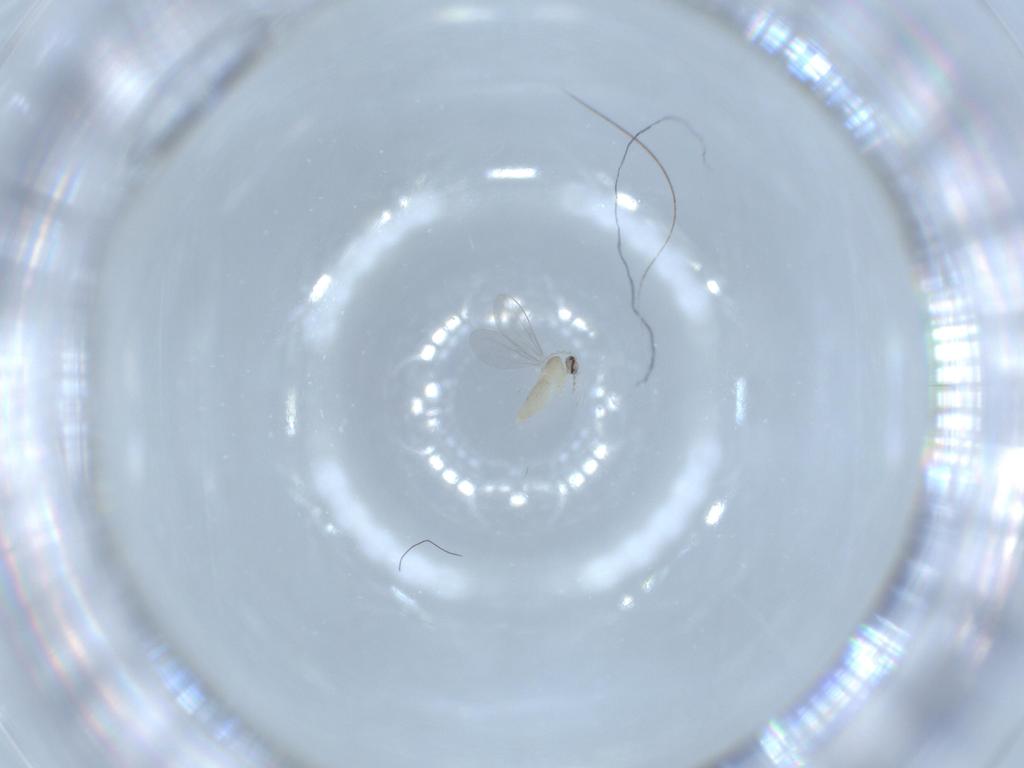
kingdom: Animalia
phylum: Arthropoda
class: Insecta
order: Diptera
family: Cecidomyiidae
